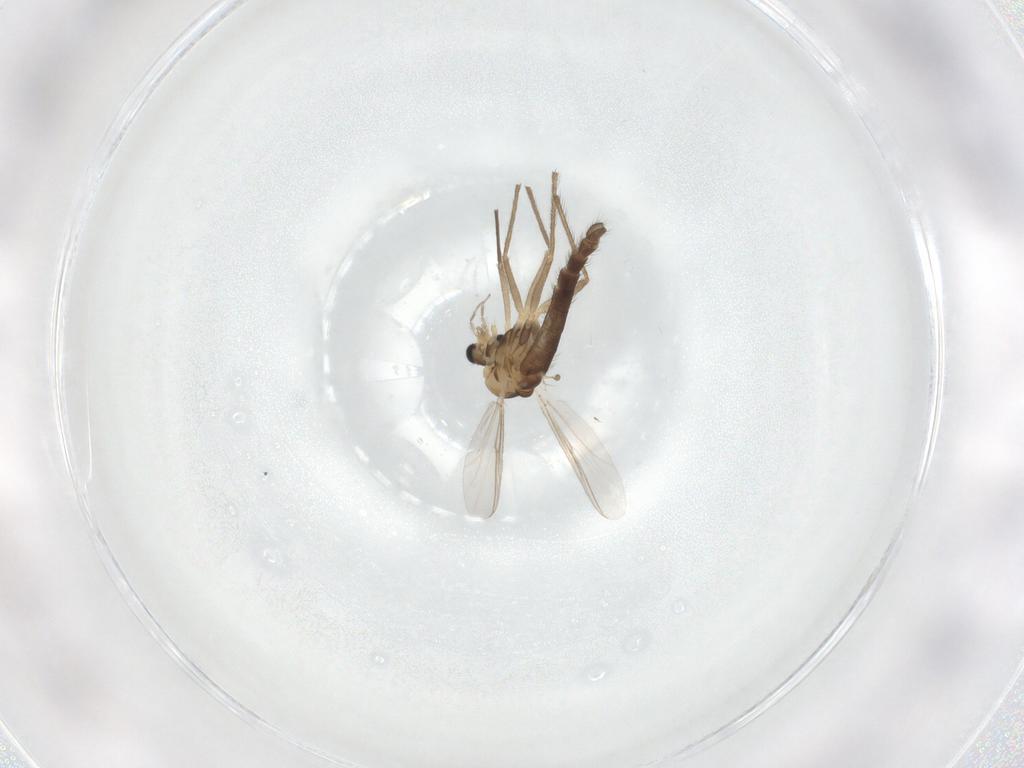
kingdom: Animalia
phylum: Arthropoda
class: Insecta
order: Diptera
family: Chironomidae
